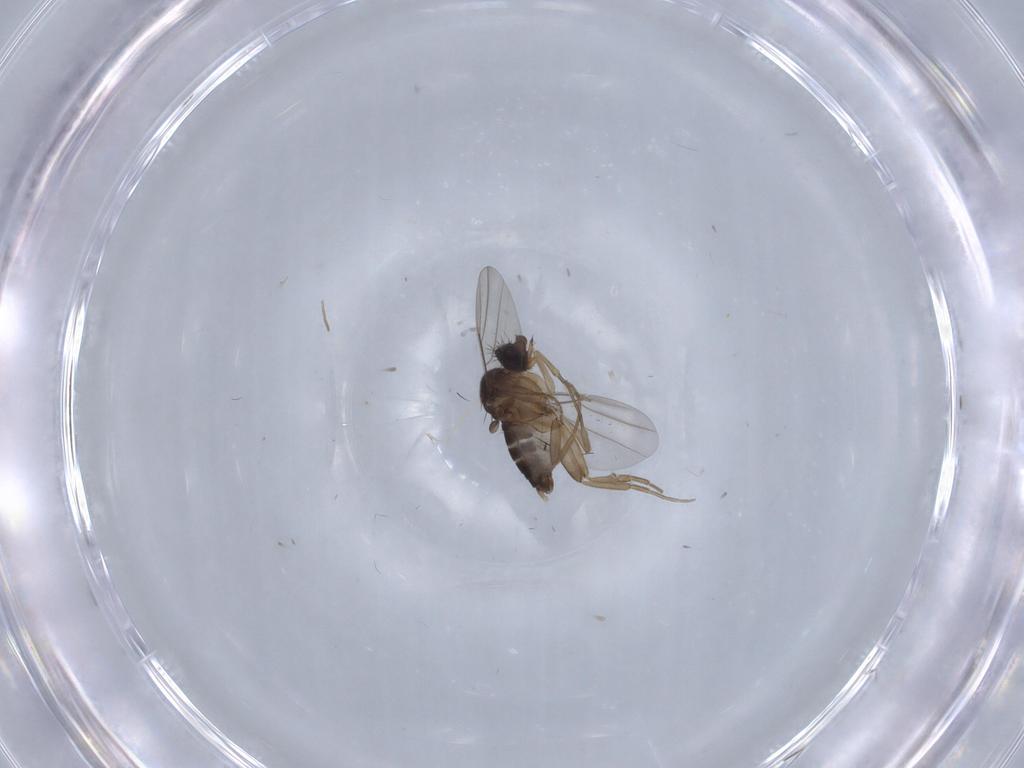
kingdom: Animalia
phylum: Arthropoda
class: Insecta
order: Diptera
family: Phoridae
